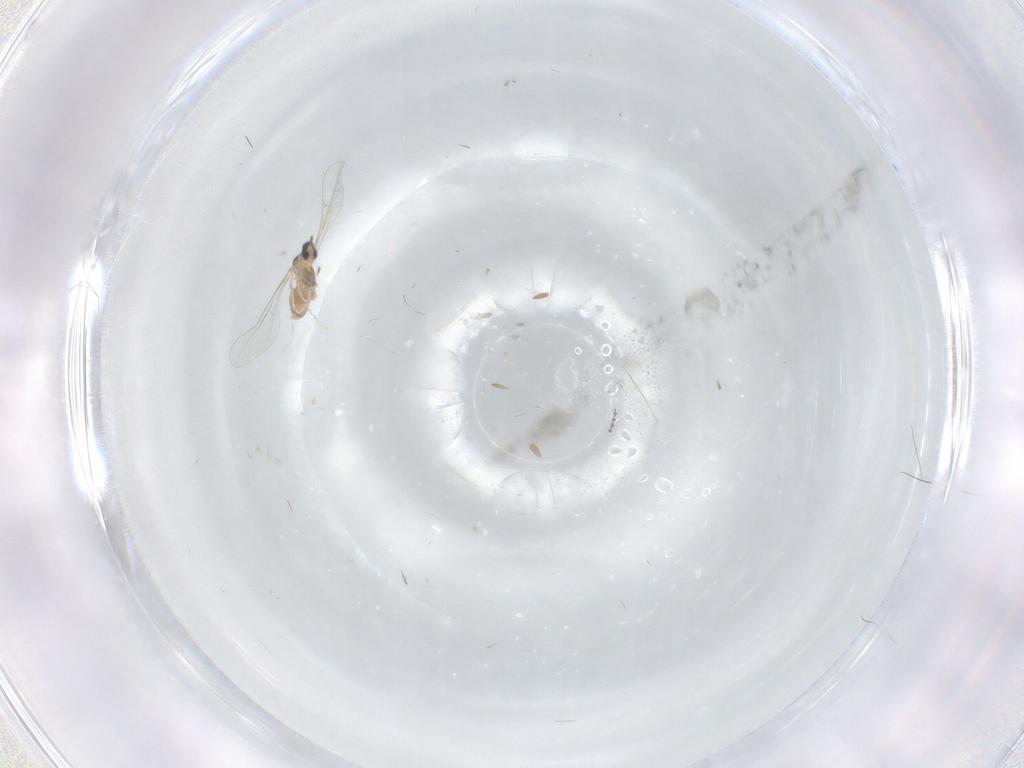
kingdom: Animalia
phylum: Arthropoda
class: Insecta
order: Diptera
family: Cecidomyiidae
